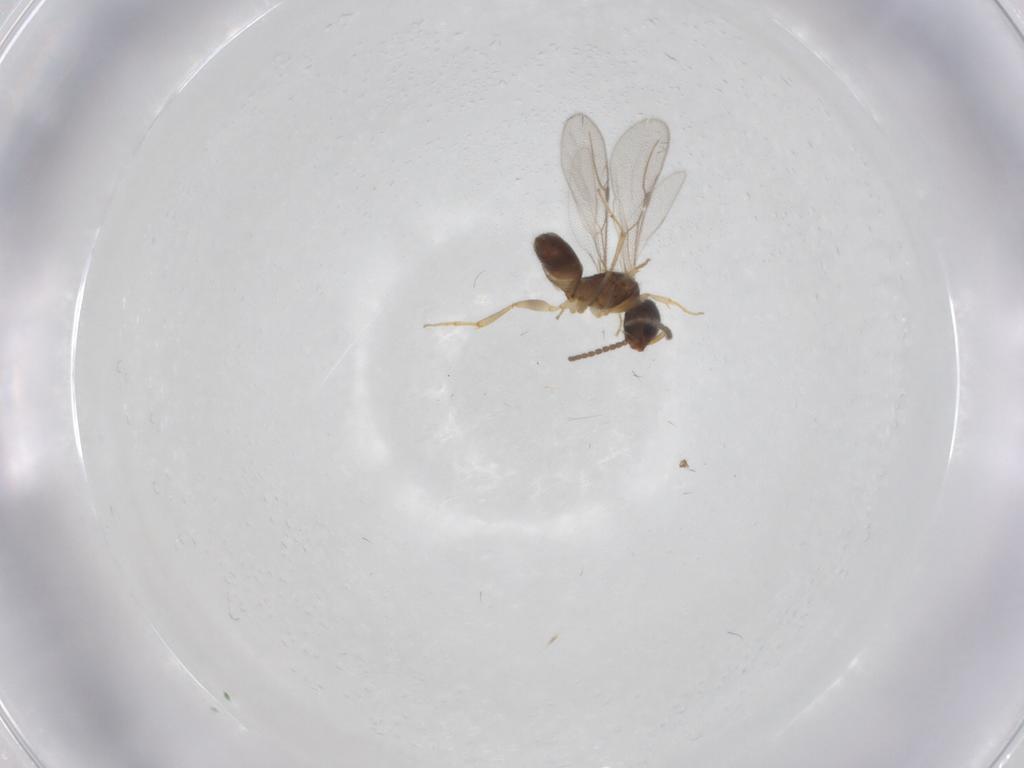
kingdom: Animalia
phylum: Arthropoda
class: Insecta
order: Hymenoptera
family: Bethylidae
